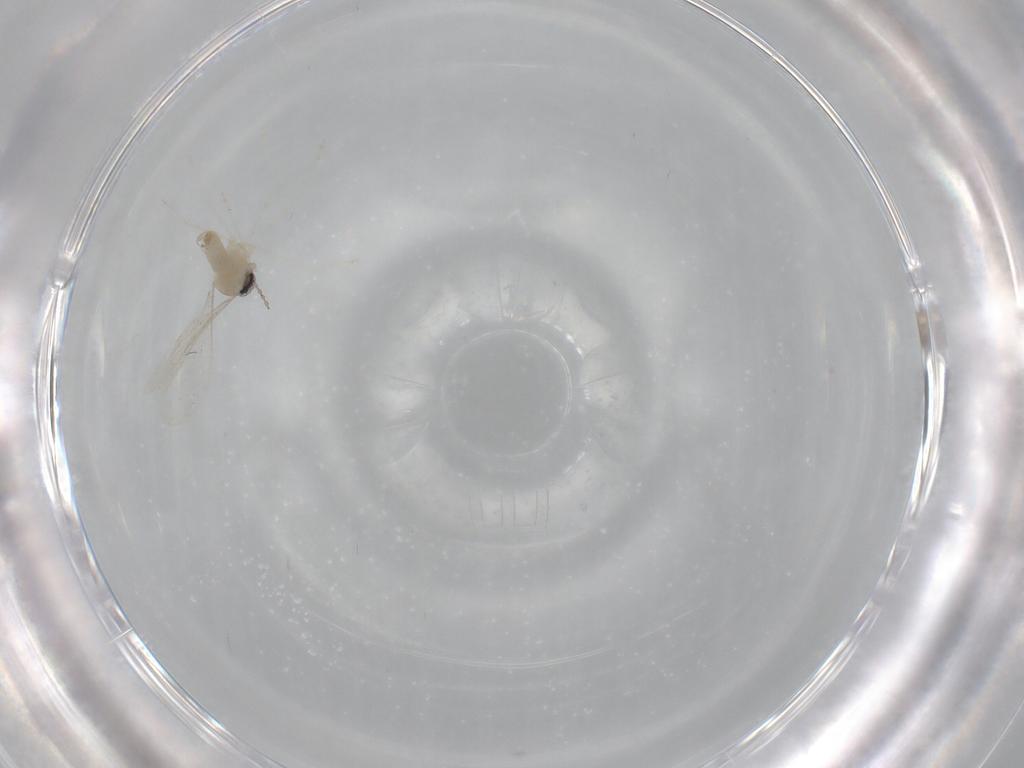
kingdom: Animalia
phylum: Arthropoda
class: Insecta
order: Diptera
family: Cecidomyiidae
